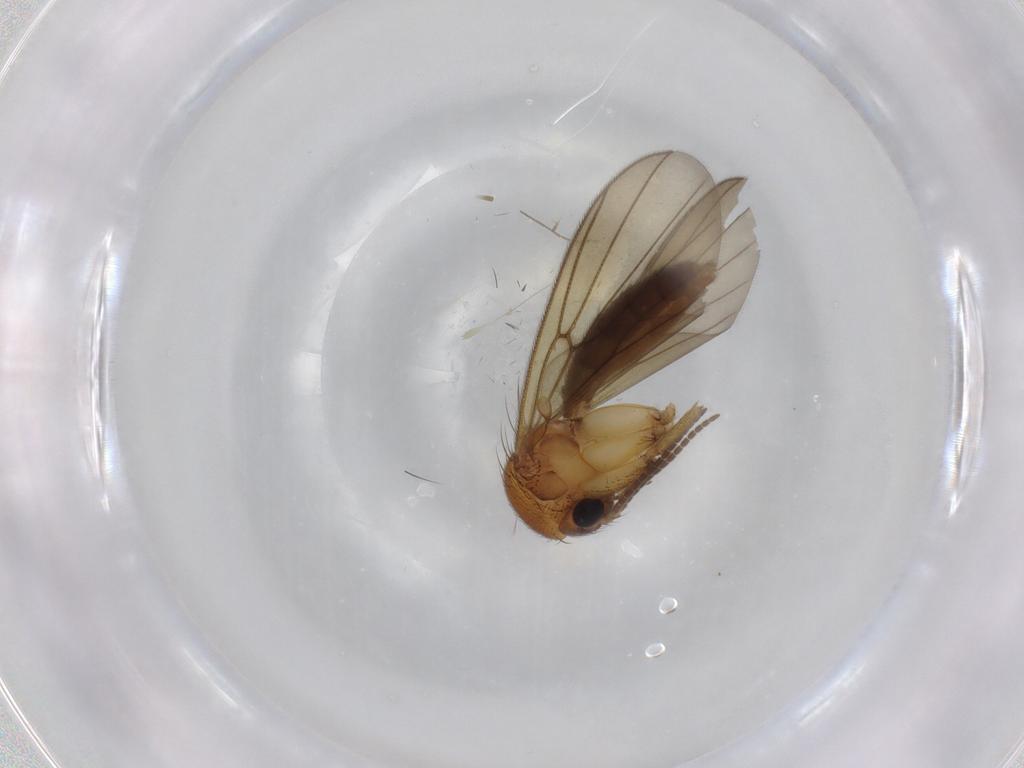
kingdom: Animalia
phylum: Arthropoda
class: Insecta
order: Diptera
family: Mycetophilidae
